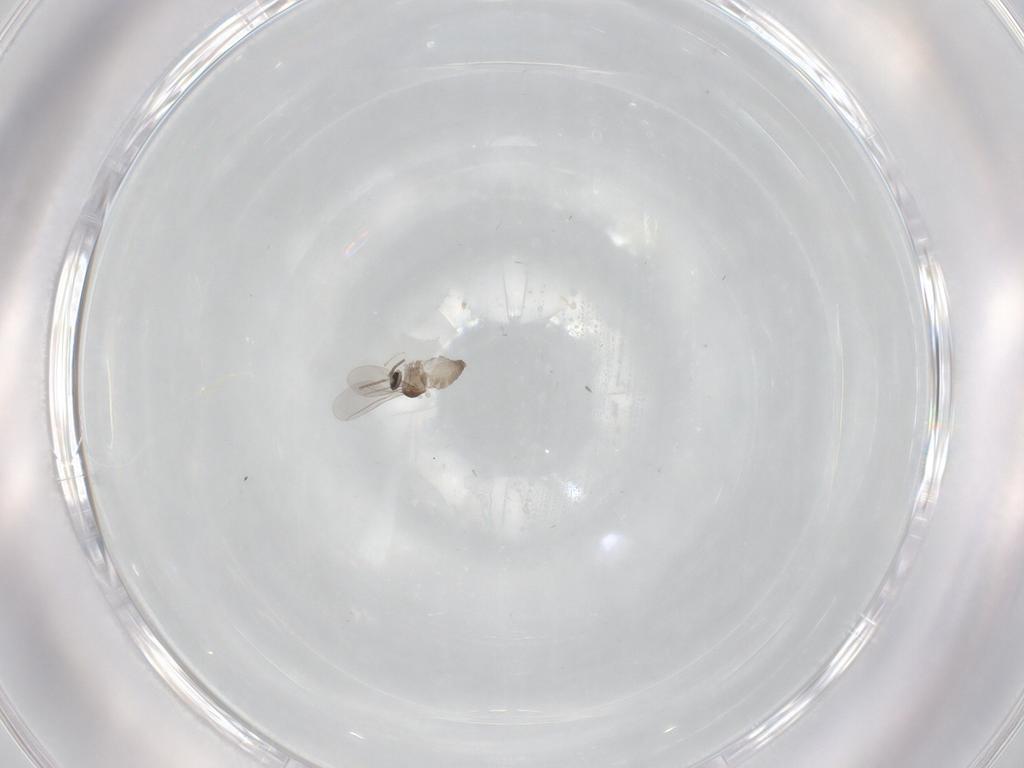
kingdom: Animalia
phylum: Arthropoda
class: Insecta
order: Diptera
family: Cecidomyiidae
